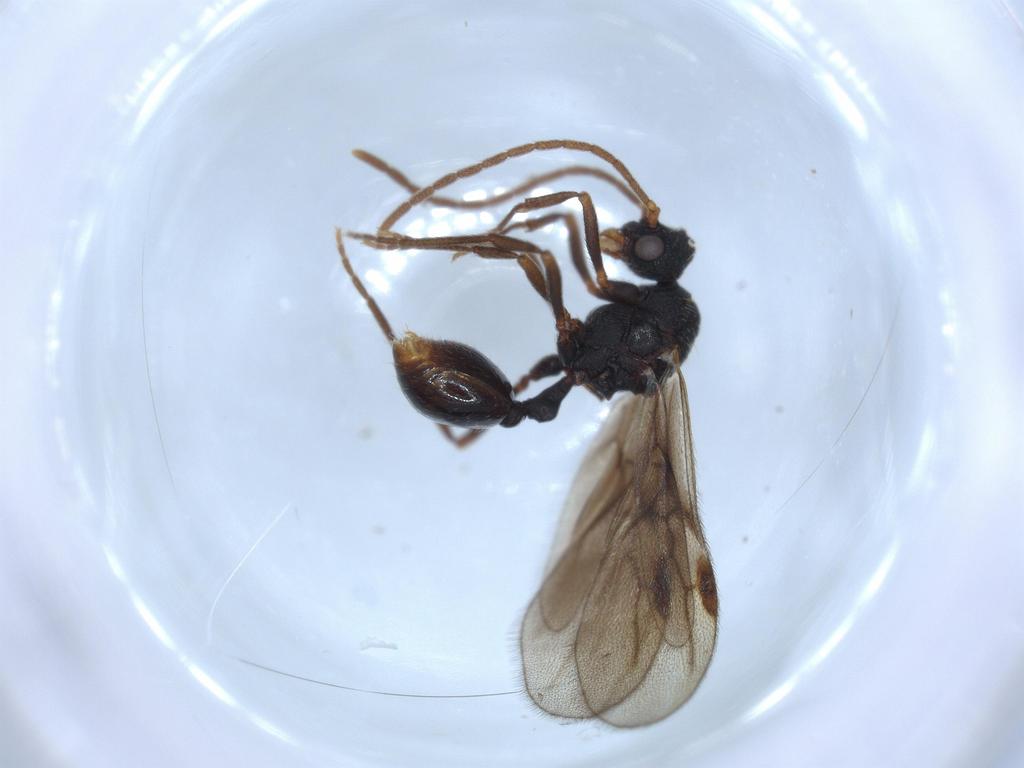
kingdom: Animalia
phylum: Arthropoda
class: Insecta
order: Hymenoptera
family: Formicidae
